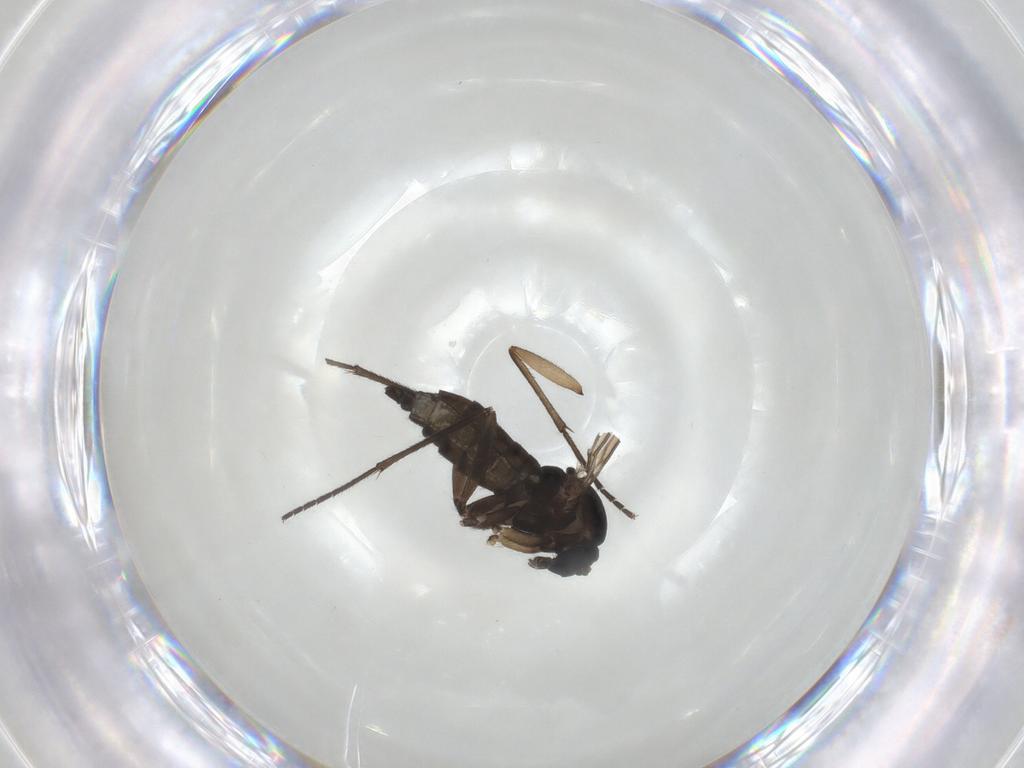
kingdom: Animalia
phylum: Arthropoda
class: Insecta
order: Diptera
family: Sciaridae
